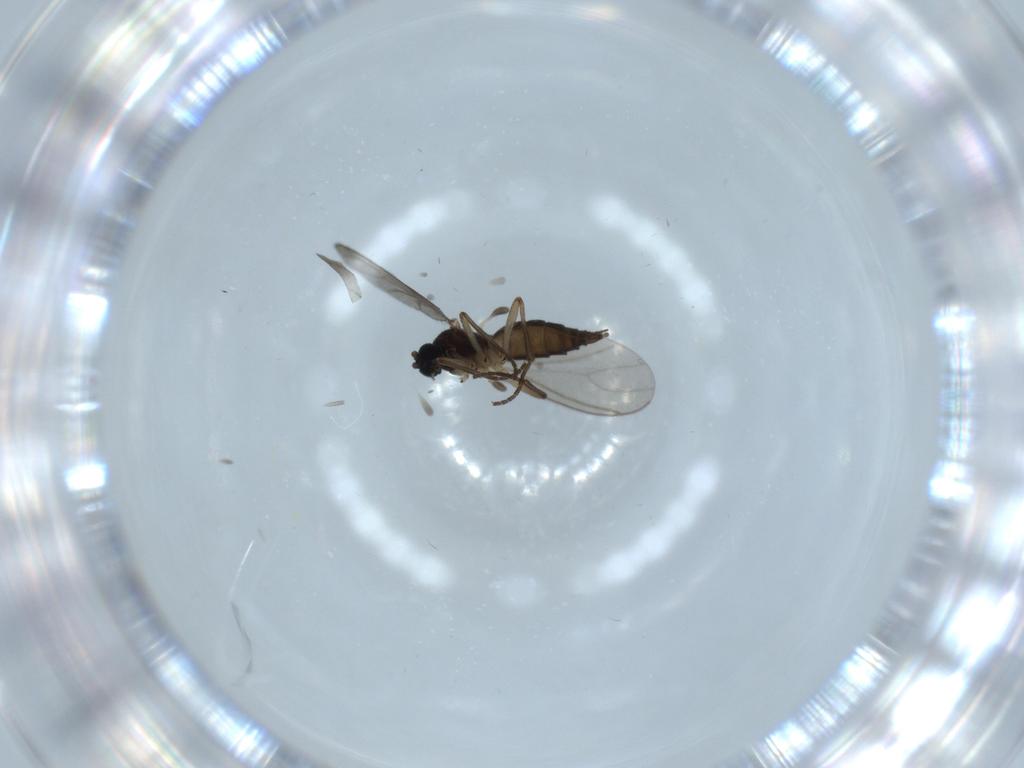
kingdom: Animalia
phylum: Arthropoda
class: Insecta
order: Diptera
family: Sciaridae
